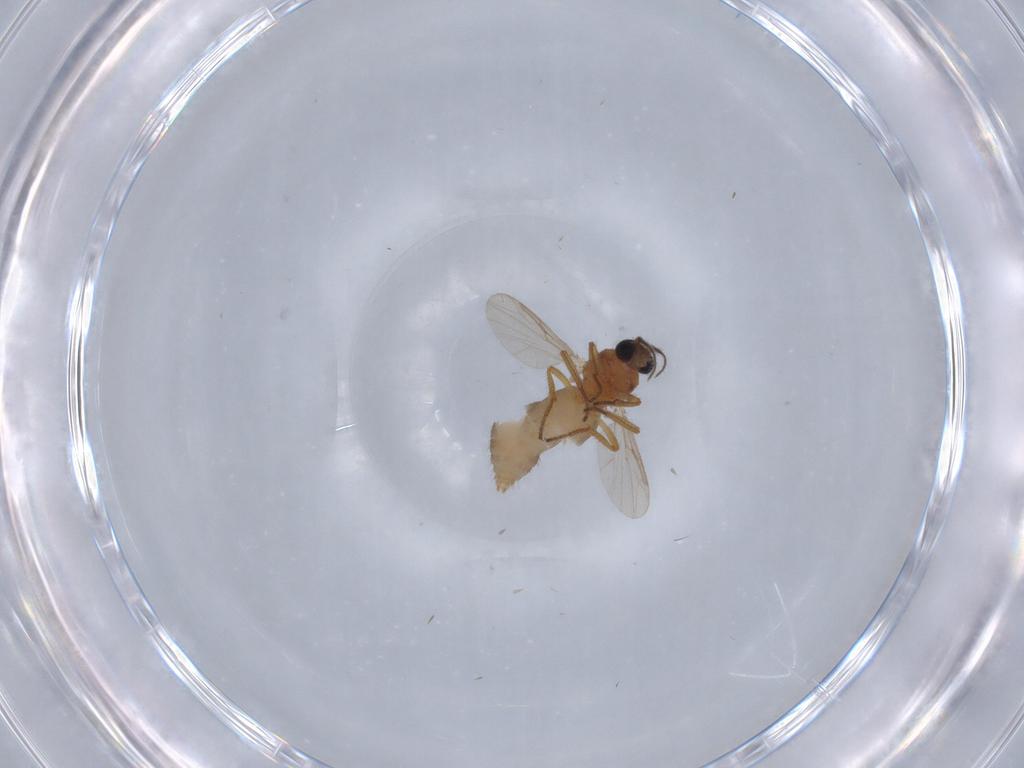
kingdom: Animalia
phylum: Arthropoda
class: Insecta
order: Diptera
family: Ceratopogonidae
